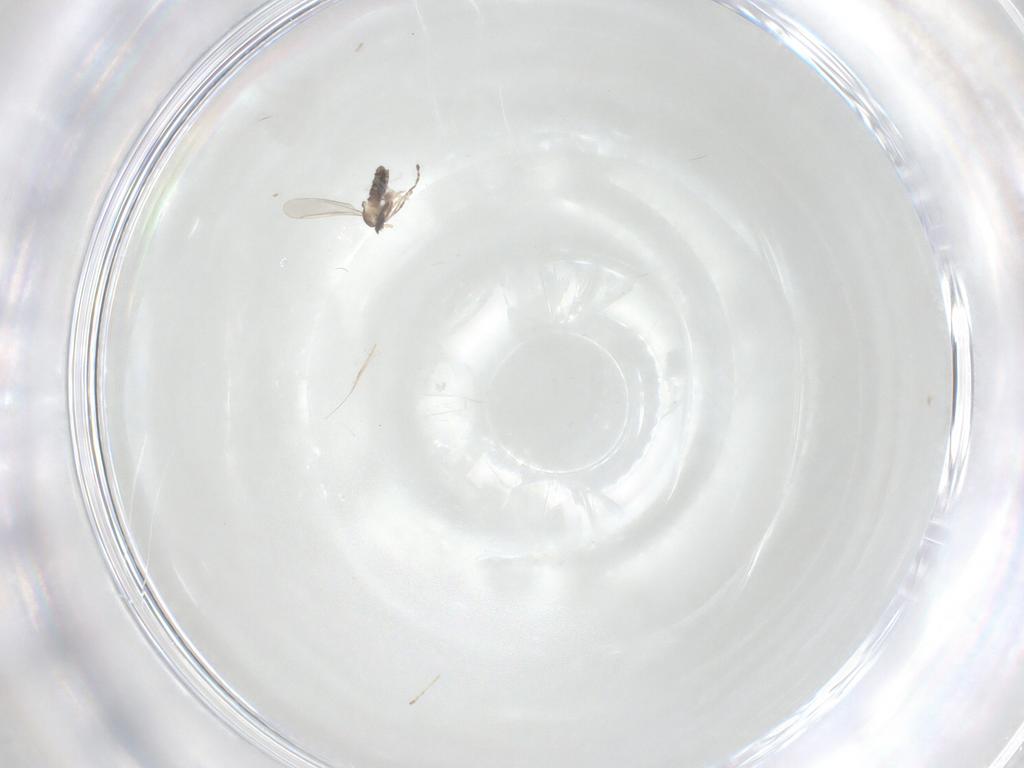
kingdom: Animalia
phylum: Arthropoda
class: Insecta
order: Diptera
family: Cecidomyiidae
